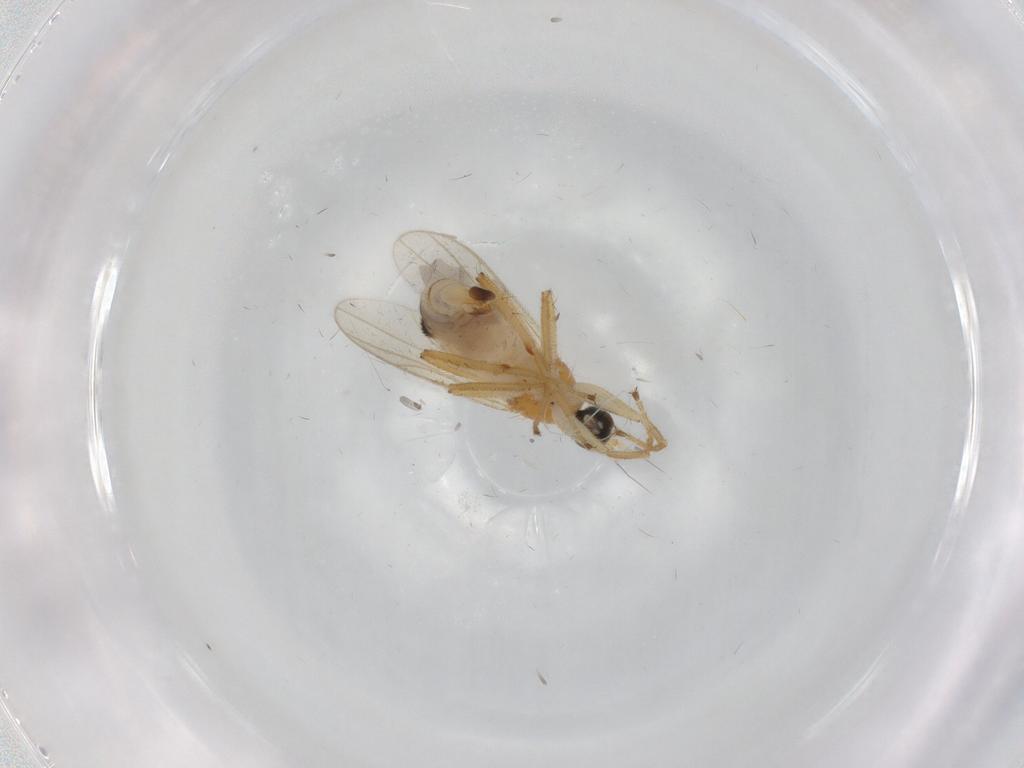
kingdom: Animalia
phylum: Arthropoda
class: Insecta
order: Diptera
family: Hybotidae
